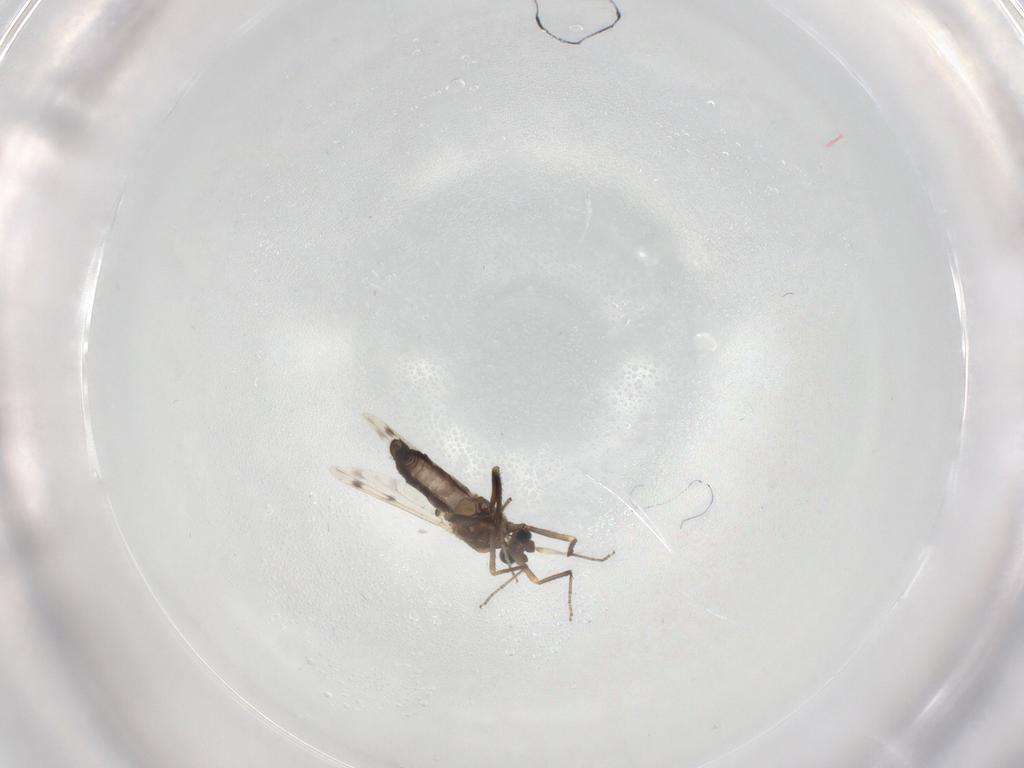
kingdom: Animalia
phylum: Arthropoda
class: Insecta
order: Diptera
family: Ceratopogonidae
